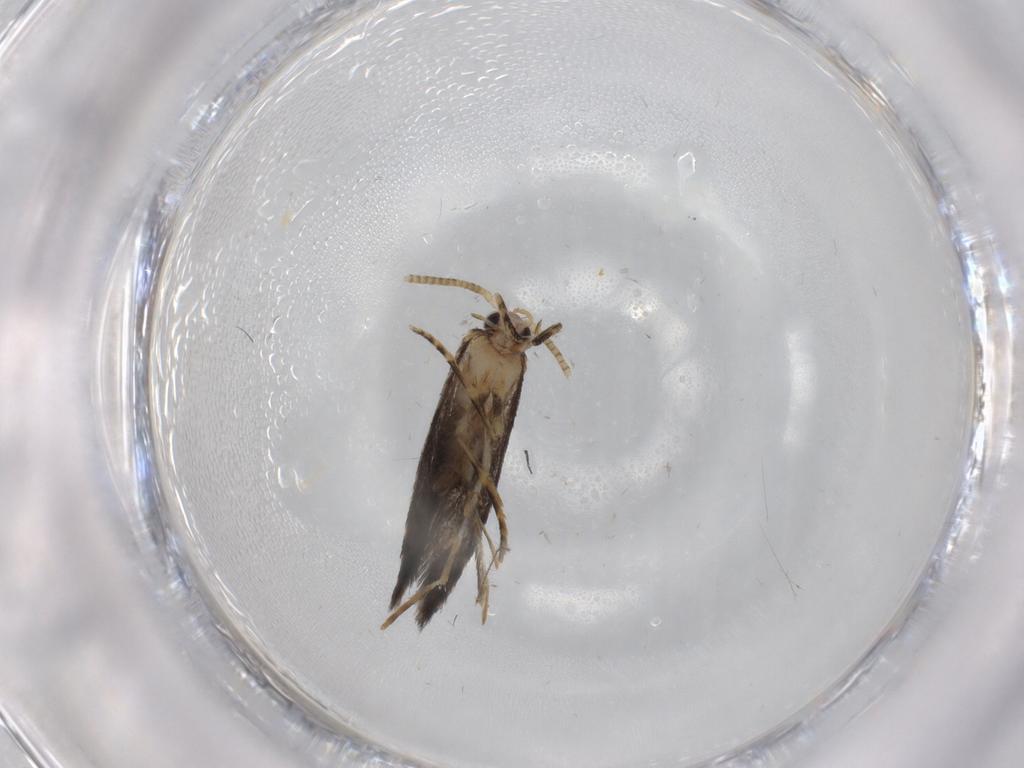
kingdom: Animalia
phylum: Arthropoda
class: Insecta
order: Lepidoptera
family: Tineidae
